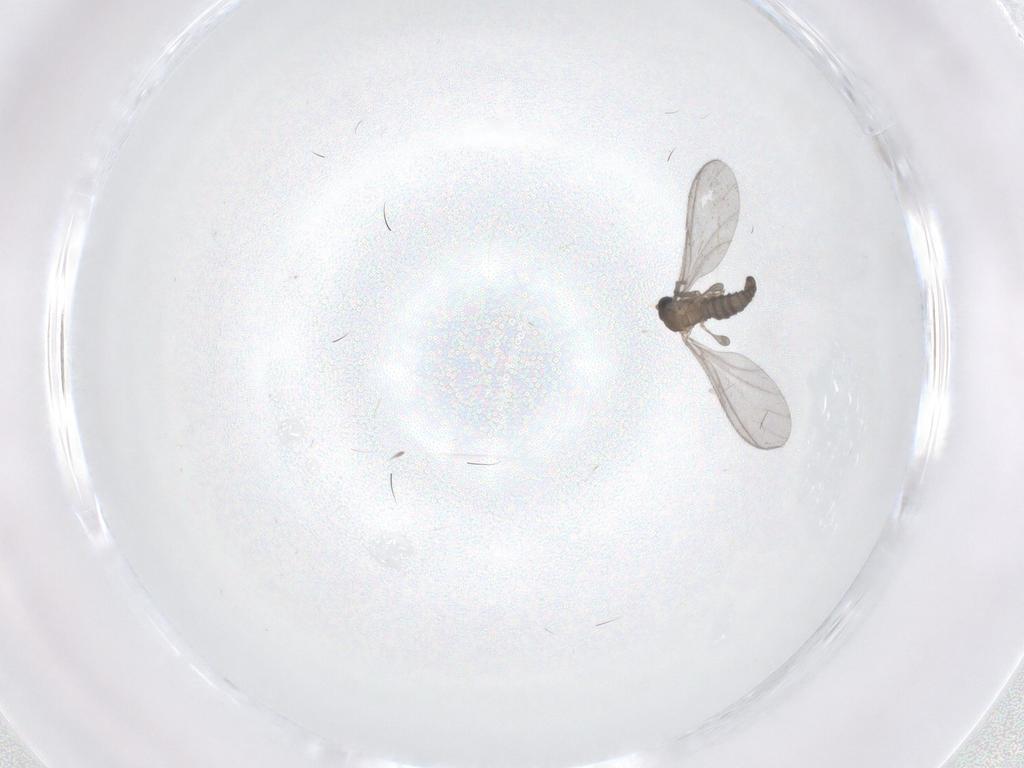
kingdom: Animalia
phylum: Arthropoda
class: Insecta
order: Diptera
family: Sciaridae
